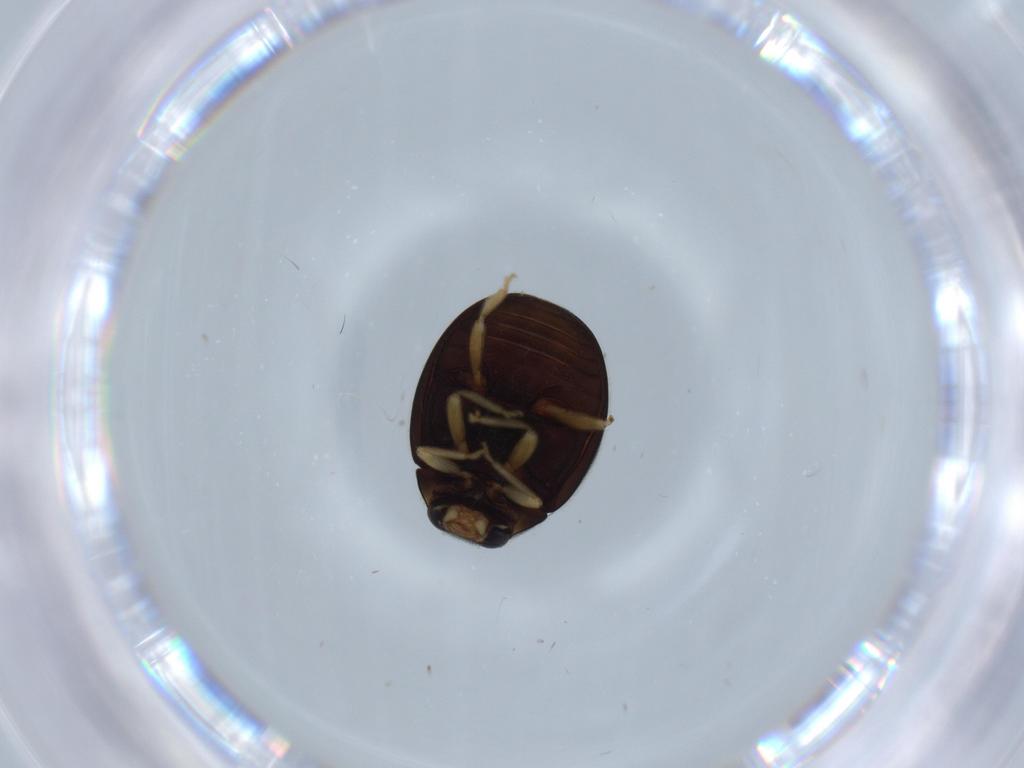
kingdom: Animalia
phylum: Arthropoda
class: Insecta
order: Coleoptera
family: Coccinellidae
